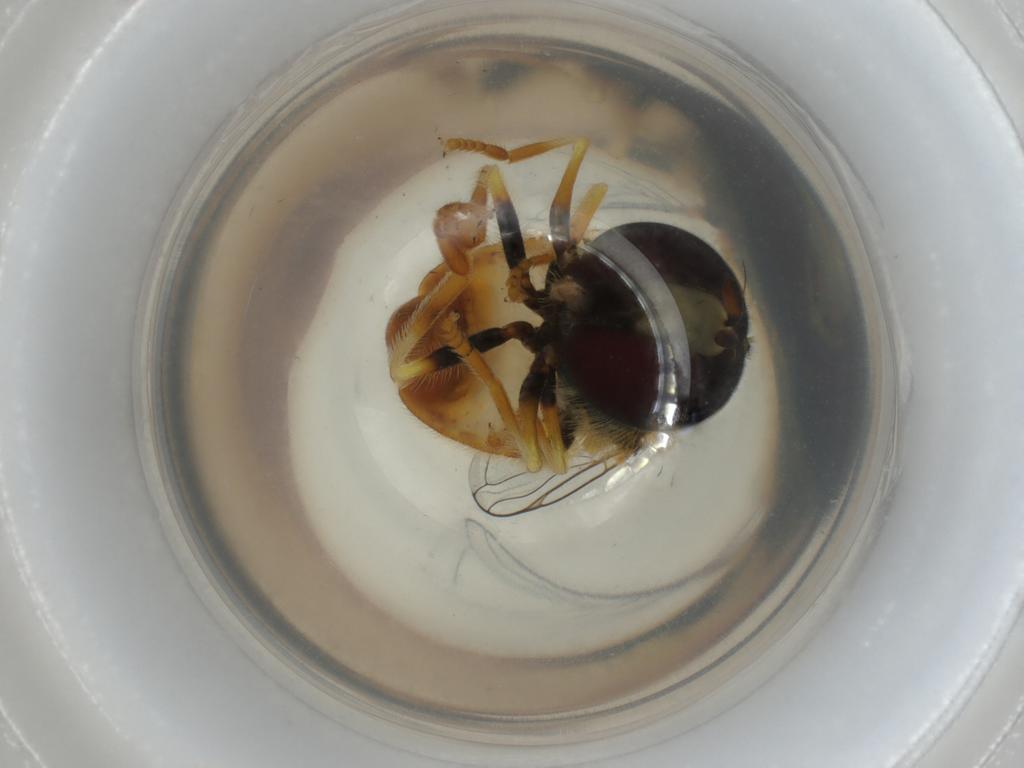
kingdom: Animalia
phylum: Arthropoda
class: Insecta
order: Diptera
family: Syrphidae
